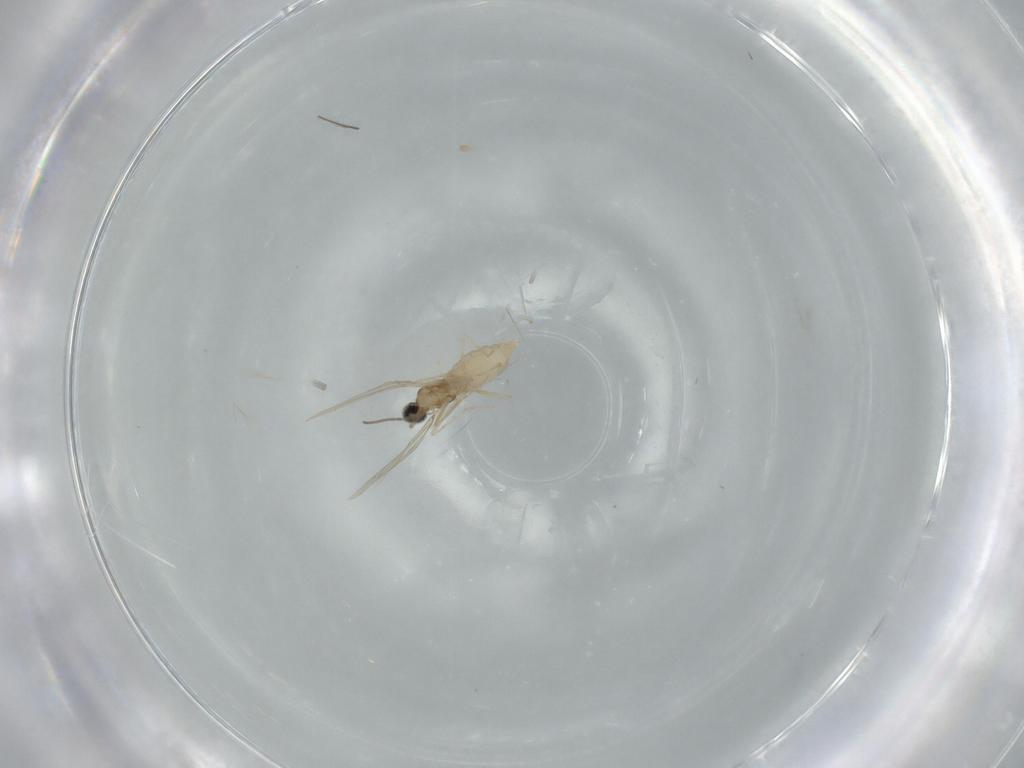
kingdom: Animalia
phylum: Arthropoda
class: Insecta
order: Diptera
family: Cecidomyiidae
